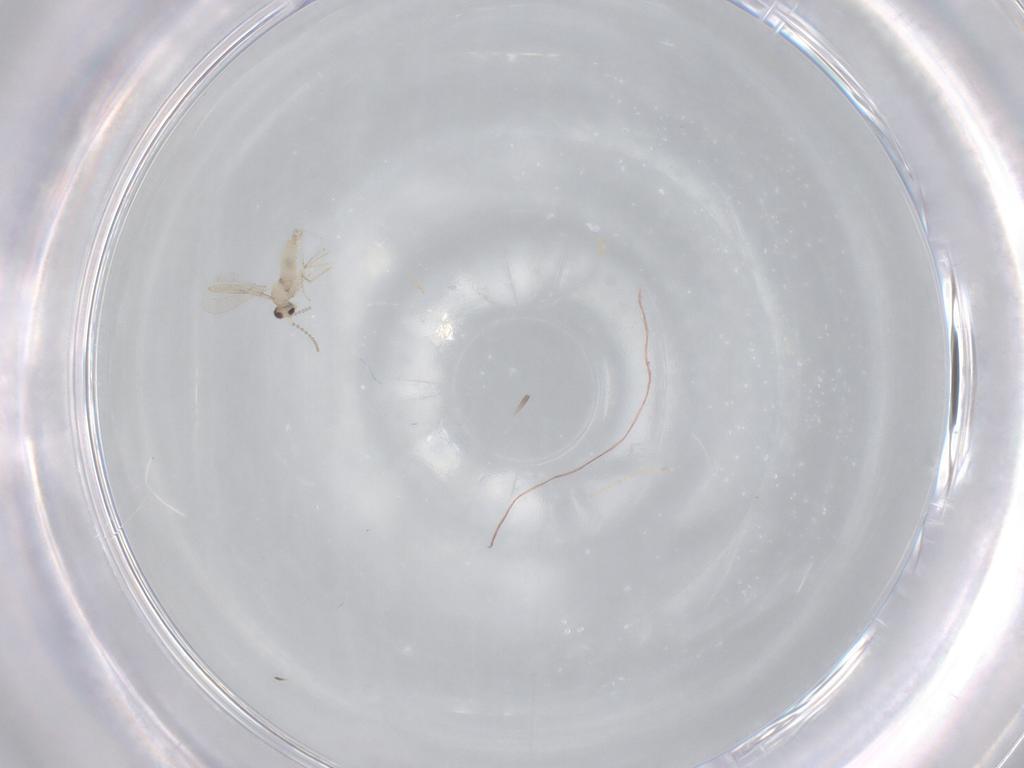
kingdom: Animalia
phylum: Arthropoda
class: Insecta
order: Diptera
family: Cecidomyiidae
